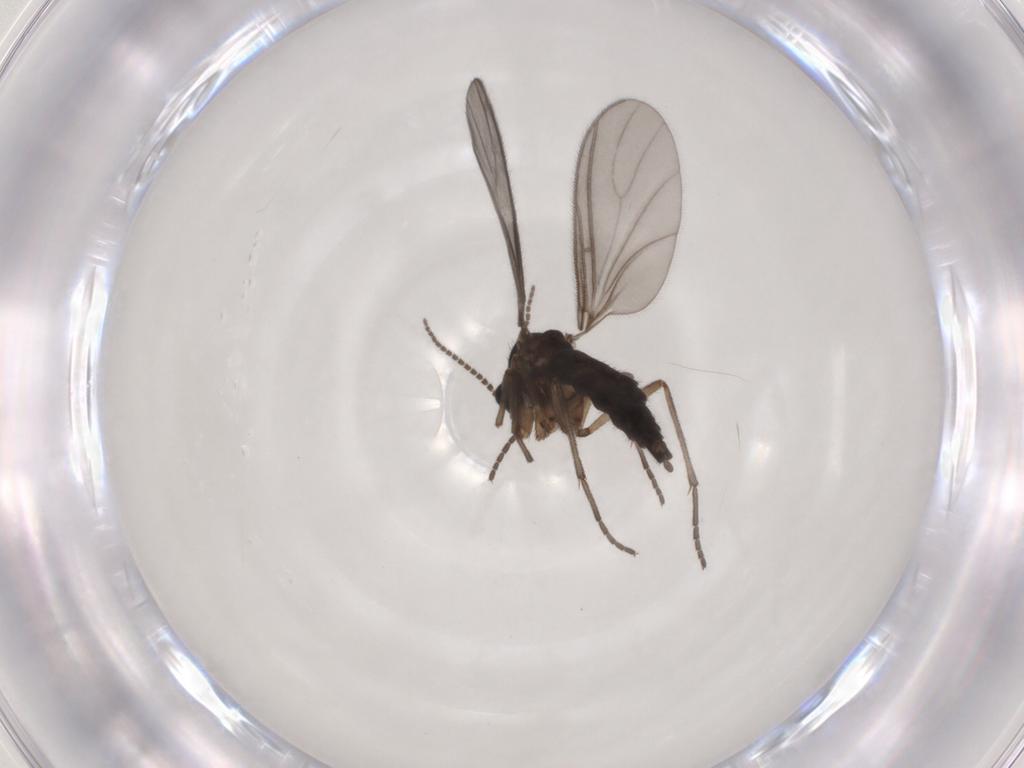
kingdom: Animalia
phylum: Arthropoda
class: Insecta
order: Diptera
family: Sciaridae
